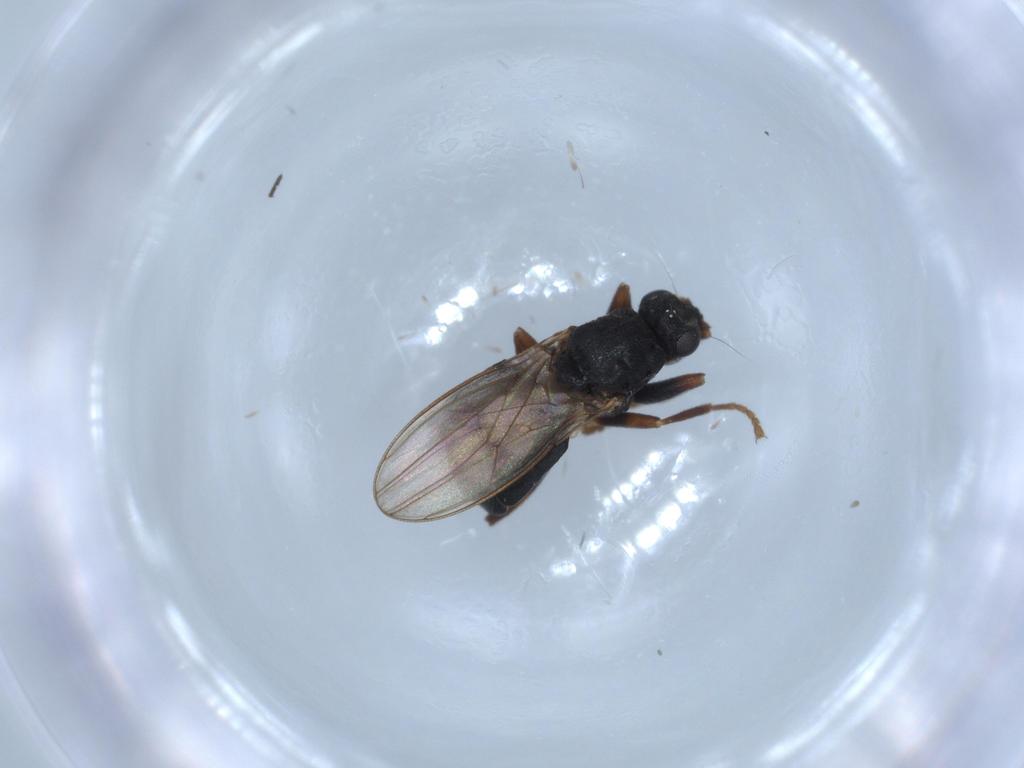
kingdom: Animalia
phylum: Arthropoda
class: Insecta
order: Diptera
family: Sphaeroceridae
